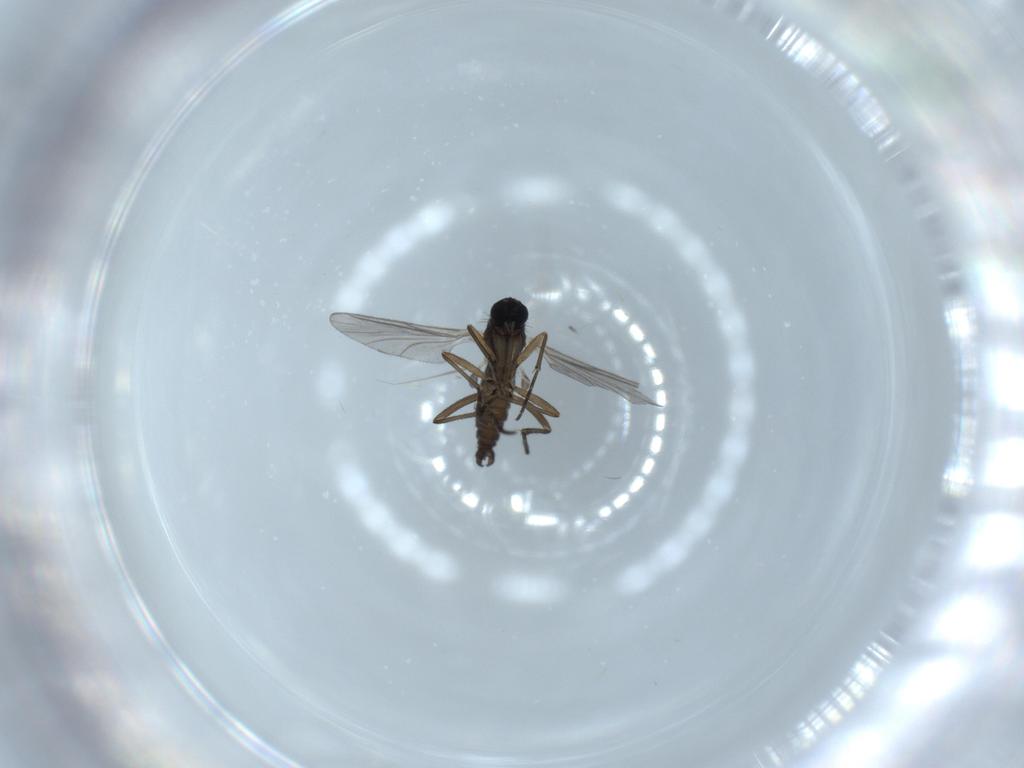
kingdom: Animalia
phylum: Arthropoda
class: Insecta
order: Diptera
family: Sciaridae
